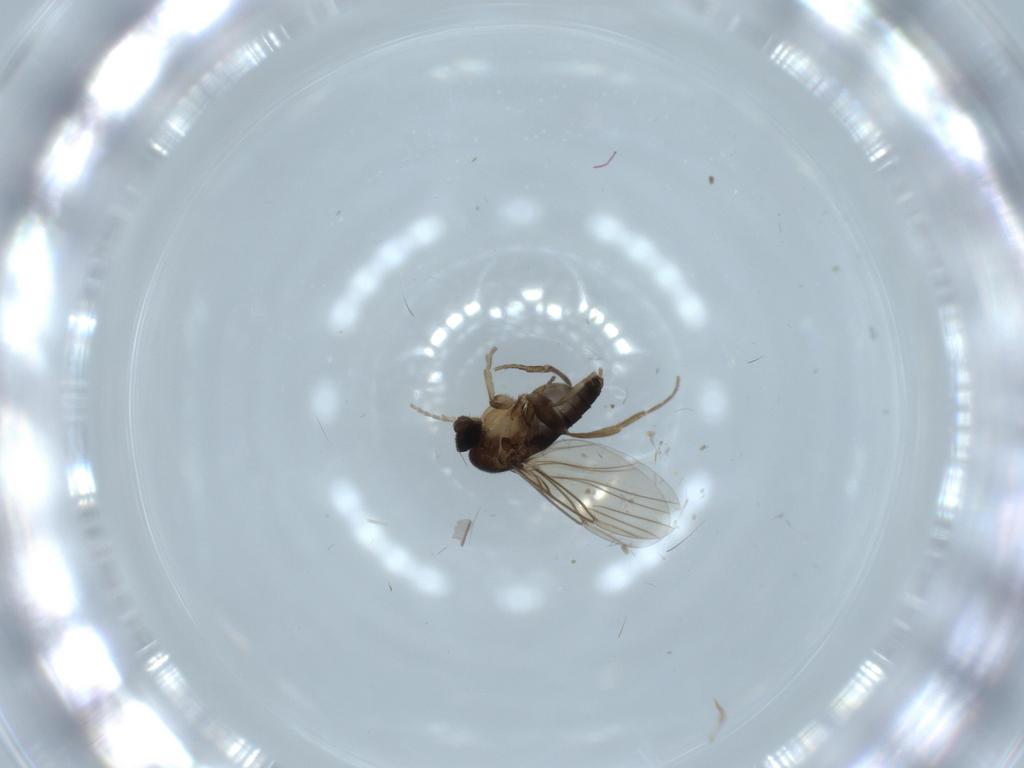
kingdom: Animalia
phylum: Arthropoda
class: Insecta
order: Diptera
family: Phoridae
